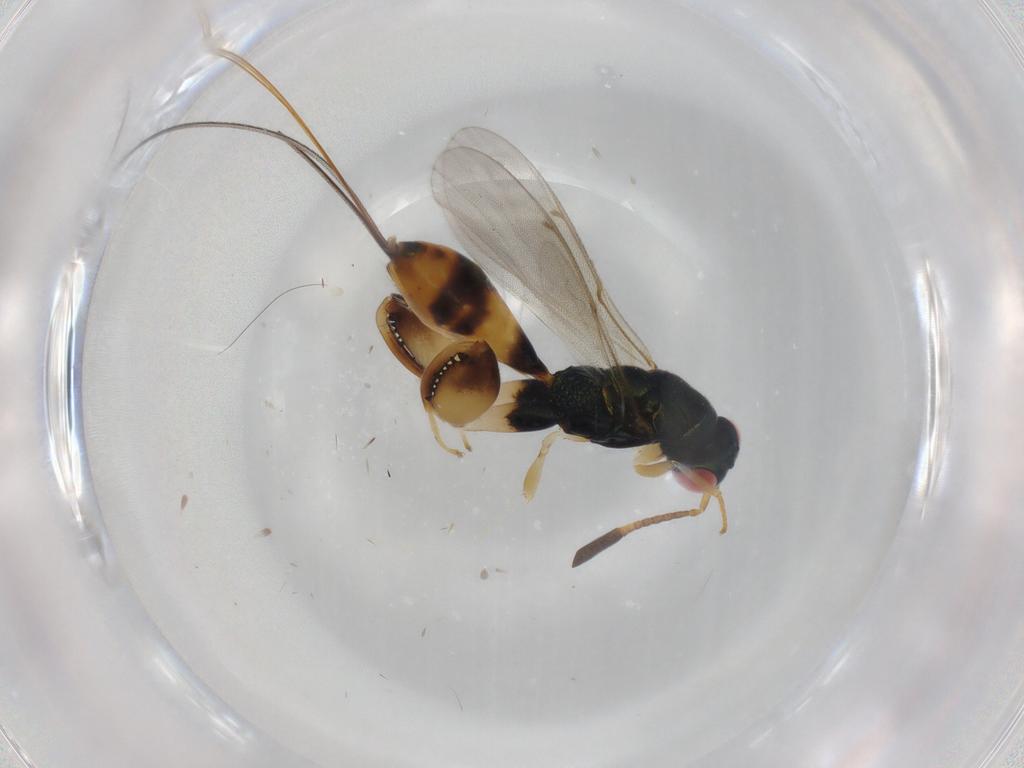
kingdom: Animalia
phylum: Arthropoda
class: Insecta
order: Hymenoptera
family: Torymidae
